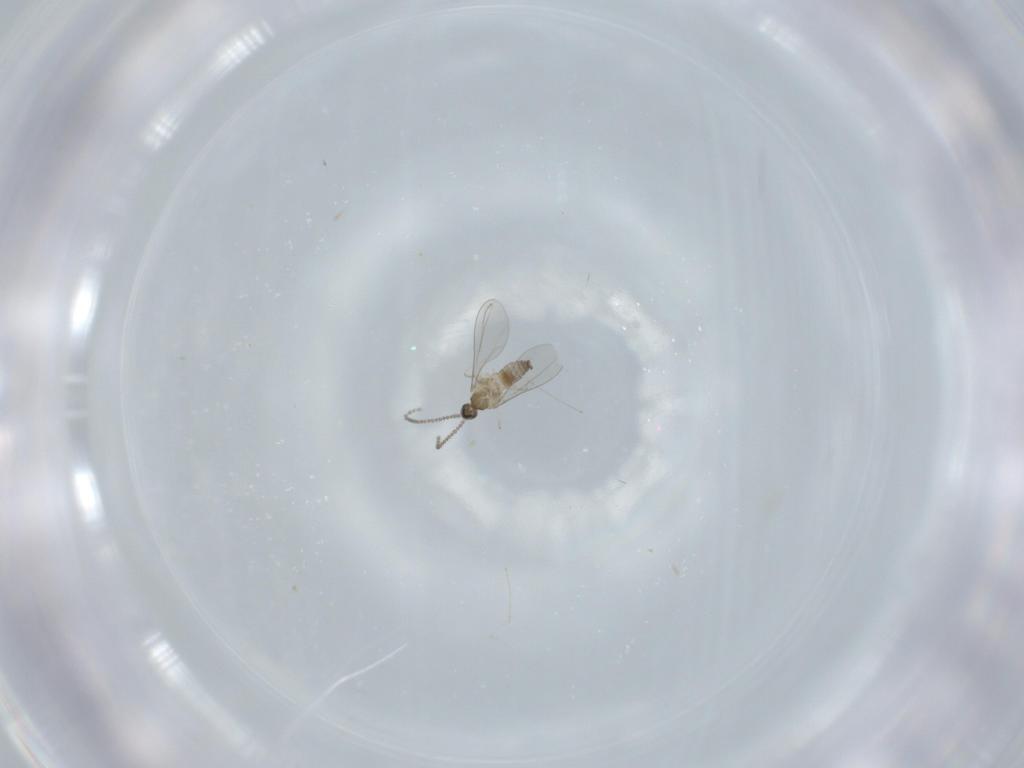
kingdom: Animalia
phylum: Arthropoda
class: Insecta
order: Diptera
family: Cecidomyiidae
